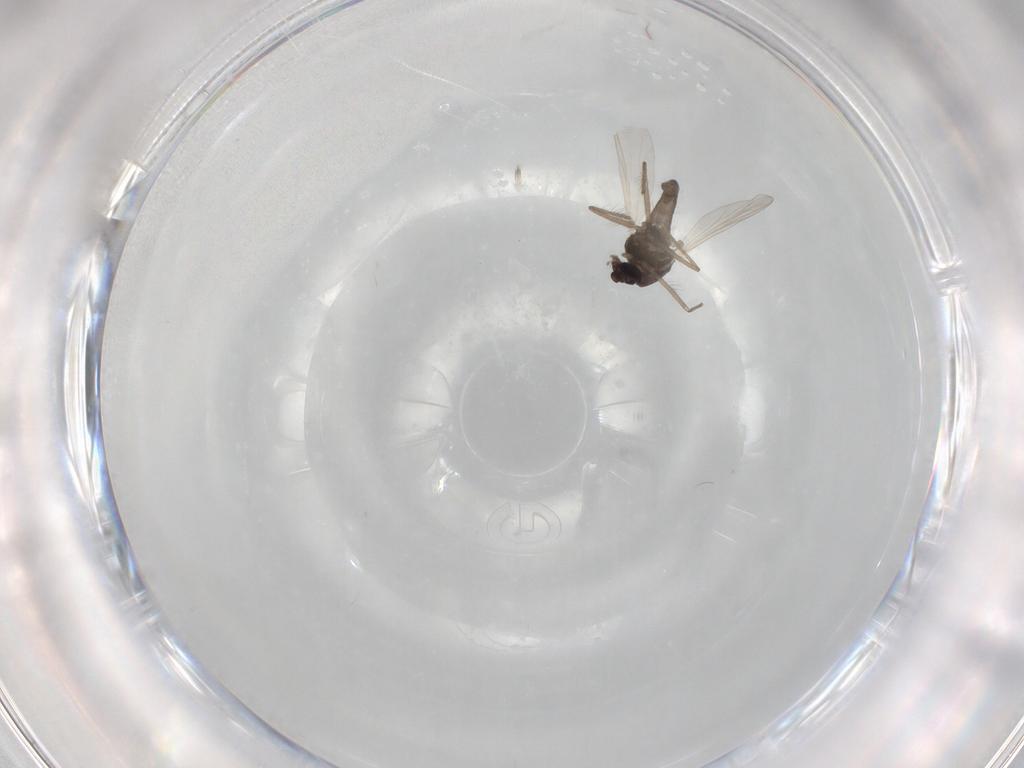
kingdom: Animalia
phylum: Arthropoda
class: Insecta
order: Diptera
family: Chironomidae
